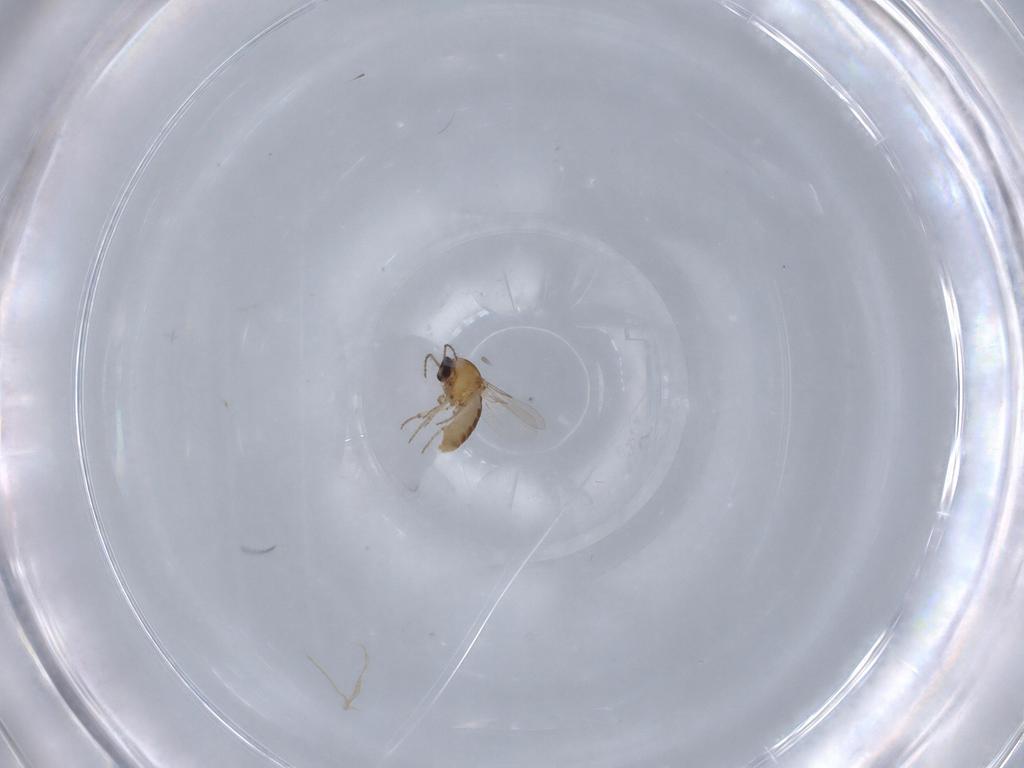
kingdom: Animalia
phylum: Arthropoda
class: Insecta
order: Diptera
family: Ceratopogonidae
